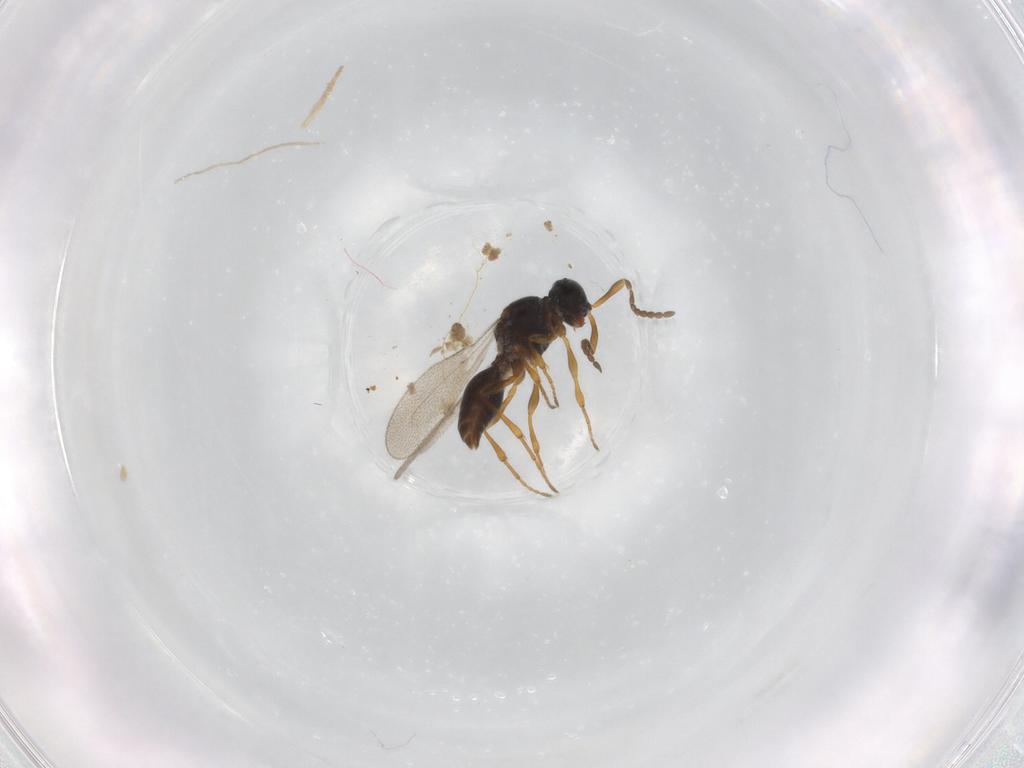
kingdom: Animalia
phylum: Arthropoda
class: Insecta
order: Diptera
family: Mythicomyiidae
